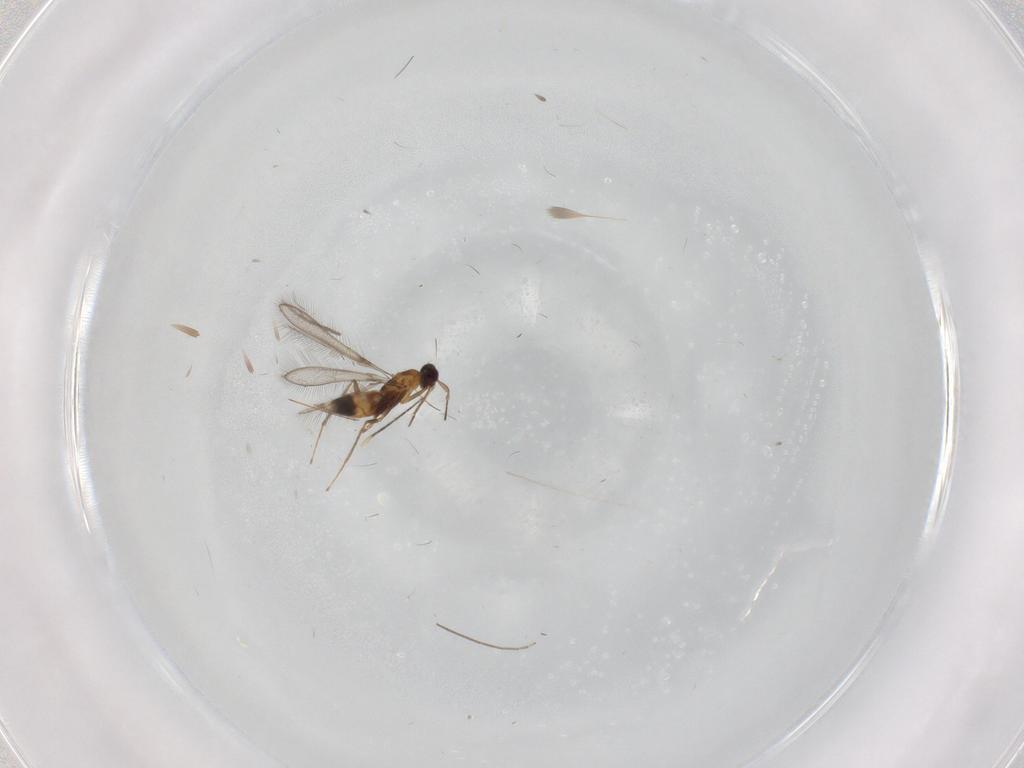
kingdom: Animalia
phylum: Arthropoda
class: Insecta
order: Hymenoptera
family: Mymaridae
